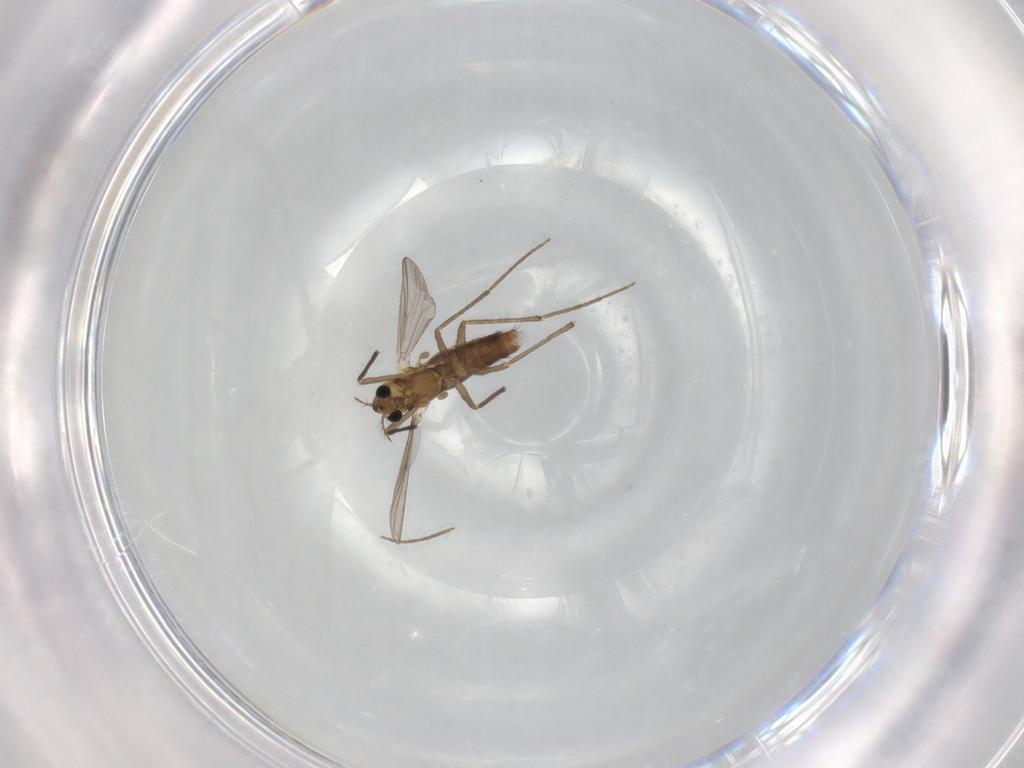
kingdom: Animalia
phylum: Arthropoda
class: Insecta
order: Diptera
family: Chironomidae
